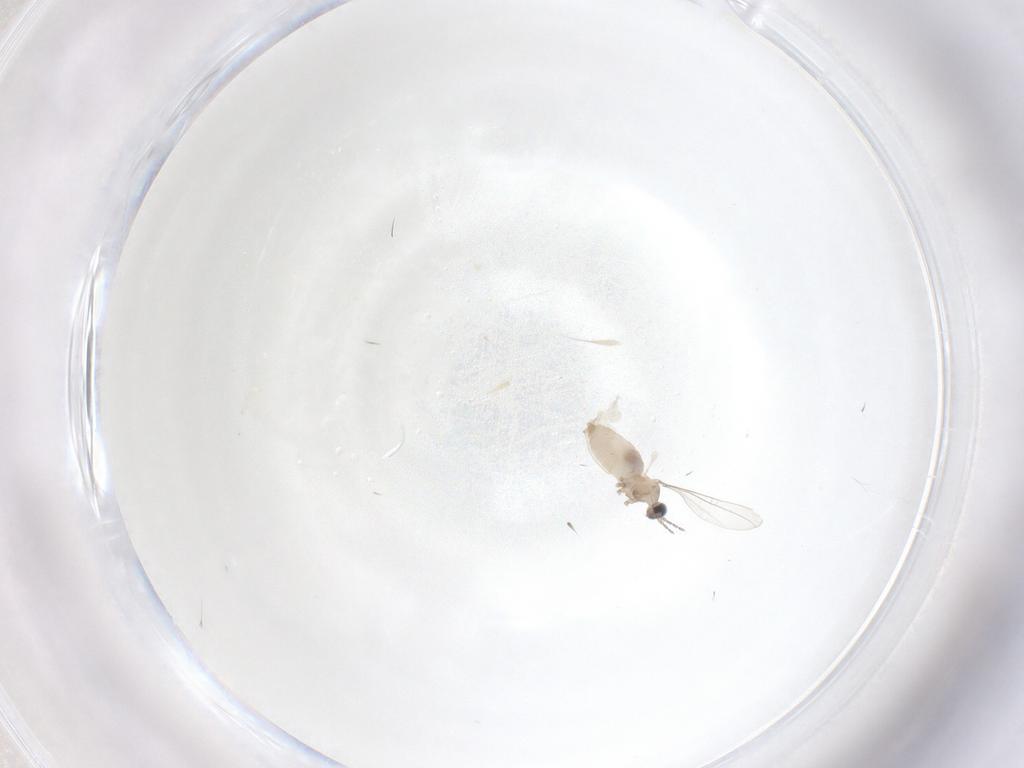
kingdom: Animalia
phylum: Arthropoda
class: Insecta
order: Diptera
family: Cecidomyiidae
